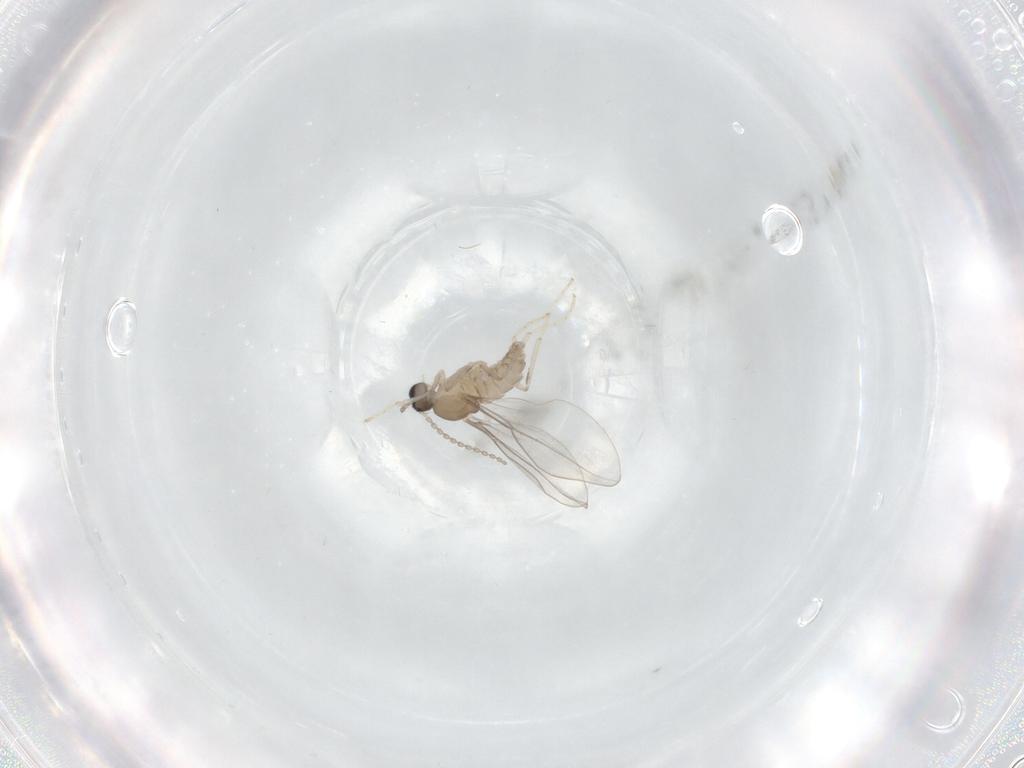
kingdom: Animalia
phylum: Arthropoda
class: Insecta
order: Diptera
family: Cecidomyiidae
